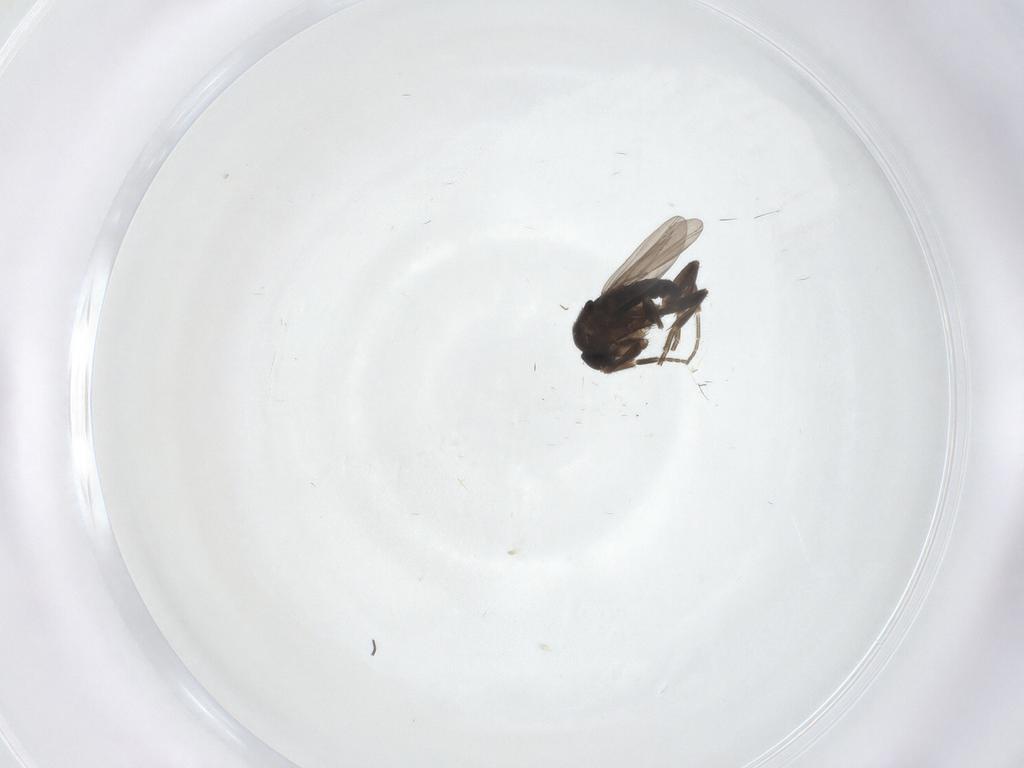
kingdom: Animalia
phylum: Arthropoda
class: Insecta
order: Diptera
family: Phoridae
